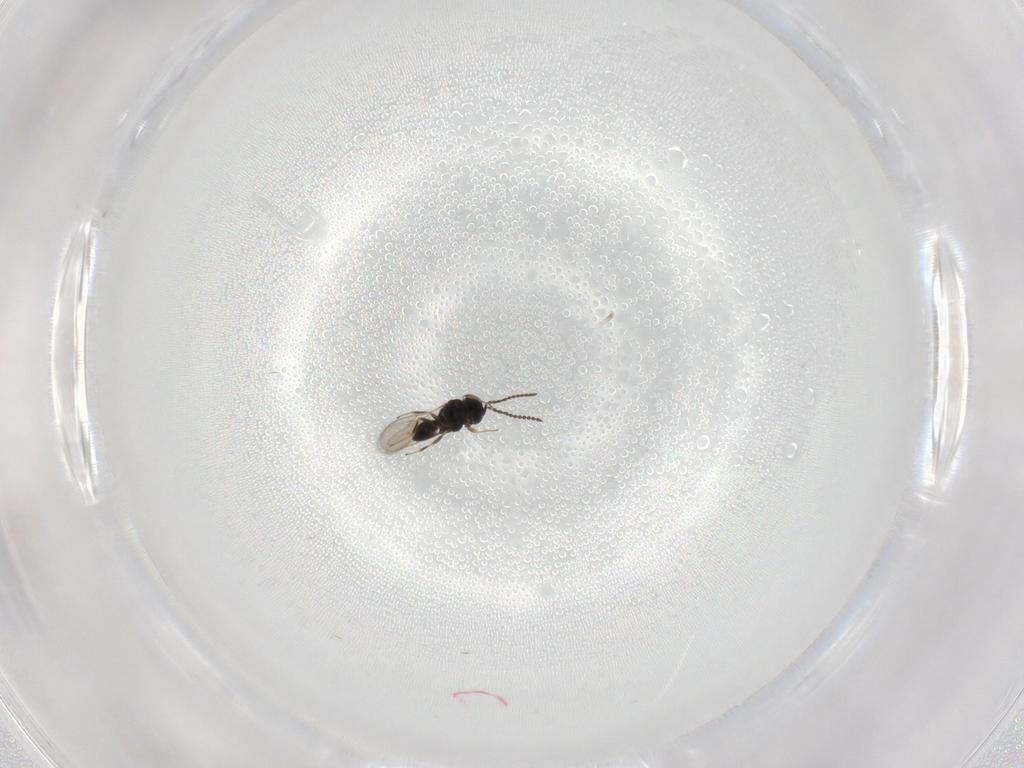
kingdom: Animalia
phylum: Arthropoda
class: Insecta
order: Hymenoptera
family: Scelionidae
